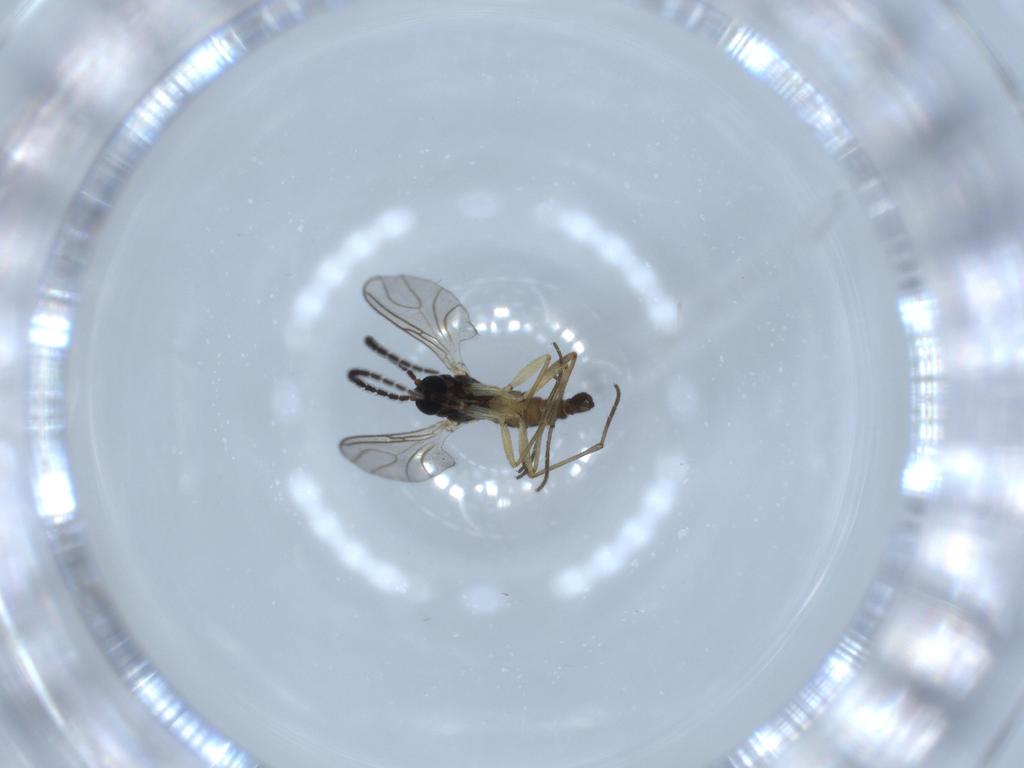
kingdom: Animalia
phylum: Arthropoda
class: Insecta
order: Diptera
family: Sciaridae
